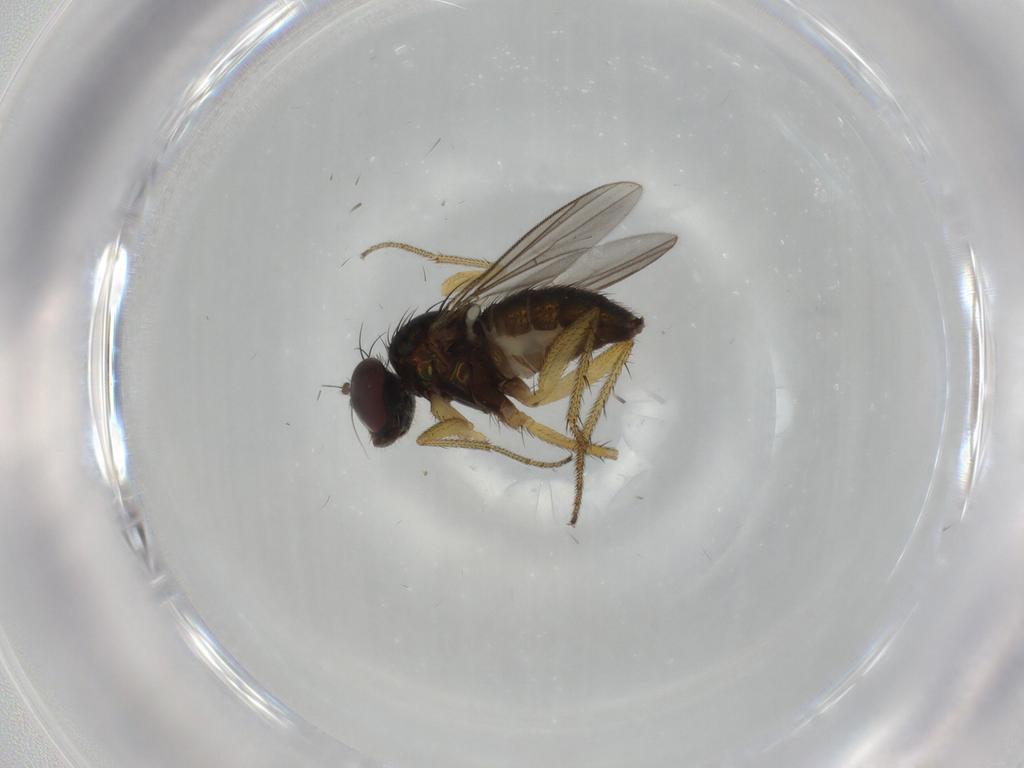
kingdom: Animalia
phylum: Arthropoda
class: Insecta
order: Diptera
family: Dolichopodidae
